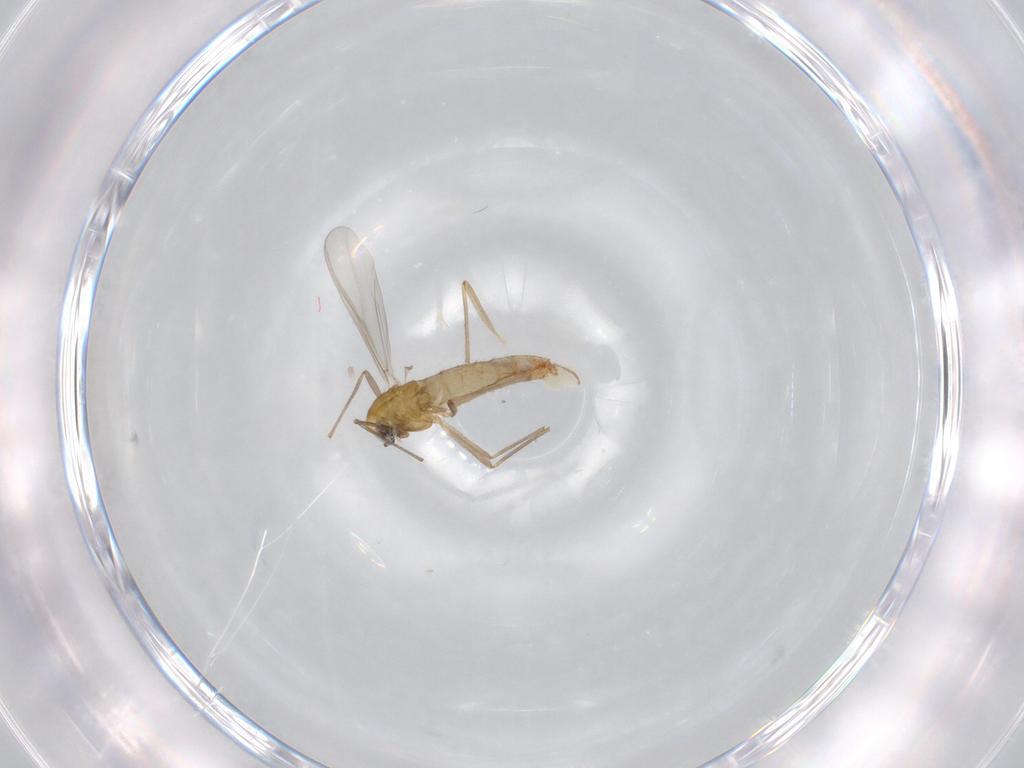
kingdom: Animalia
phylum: Arthropoda
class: Insecta
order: Diptera
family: Chironomidae
